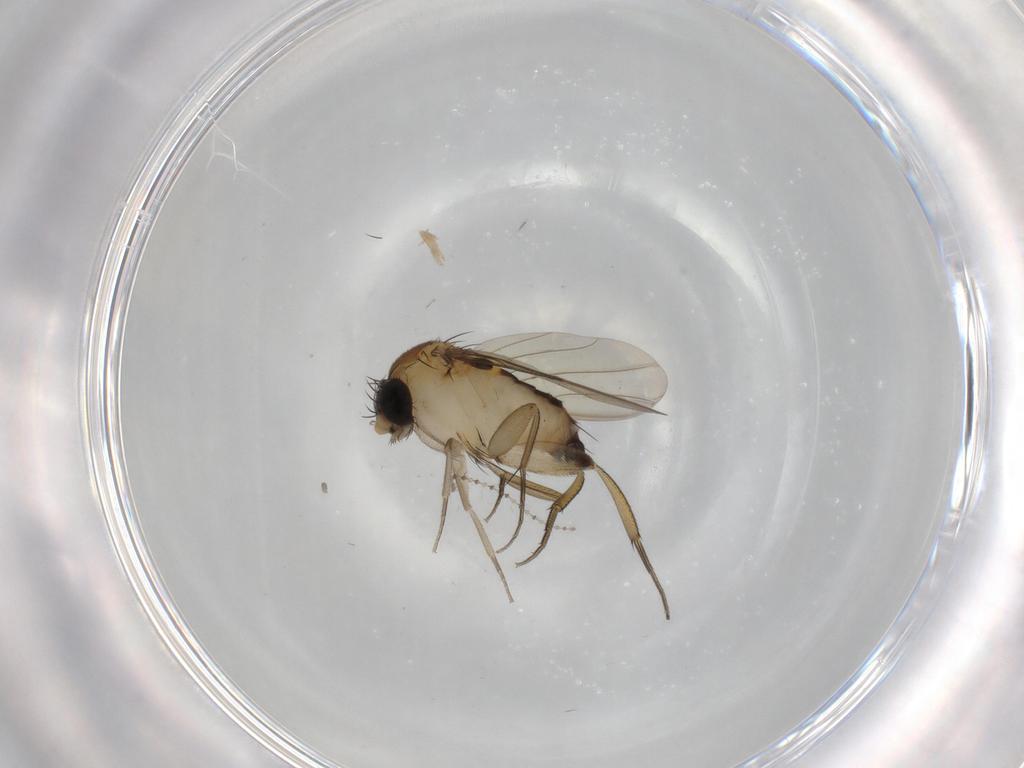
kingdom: Animalia
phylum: Arthropoda
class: Insecta
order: Diptera
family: Phoridae
